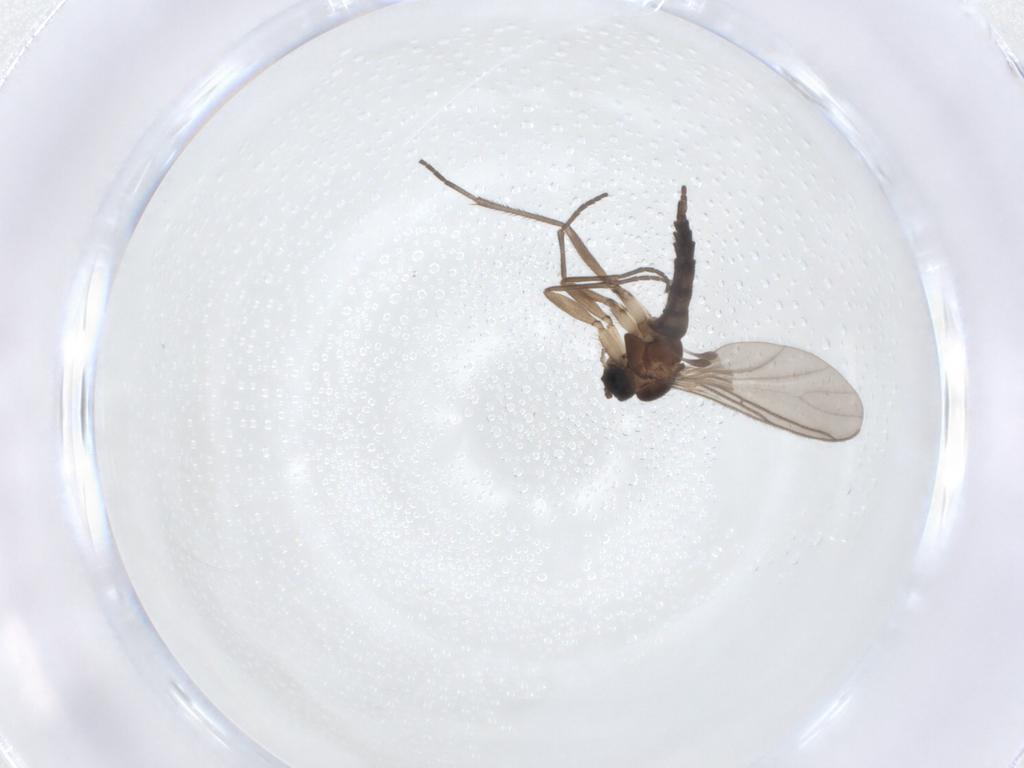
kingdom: Animalia
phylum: Arthropoda
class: Insecta
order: Diptera
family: Sciaridae
